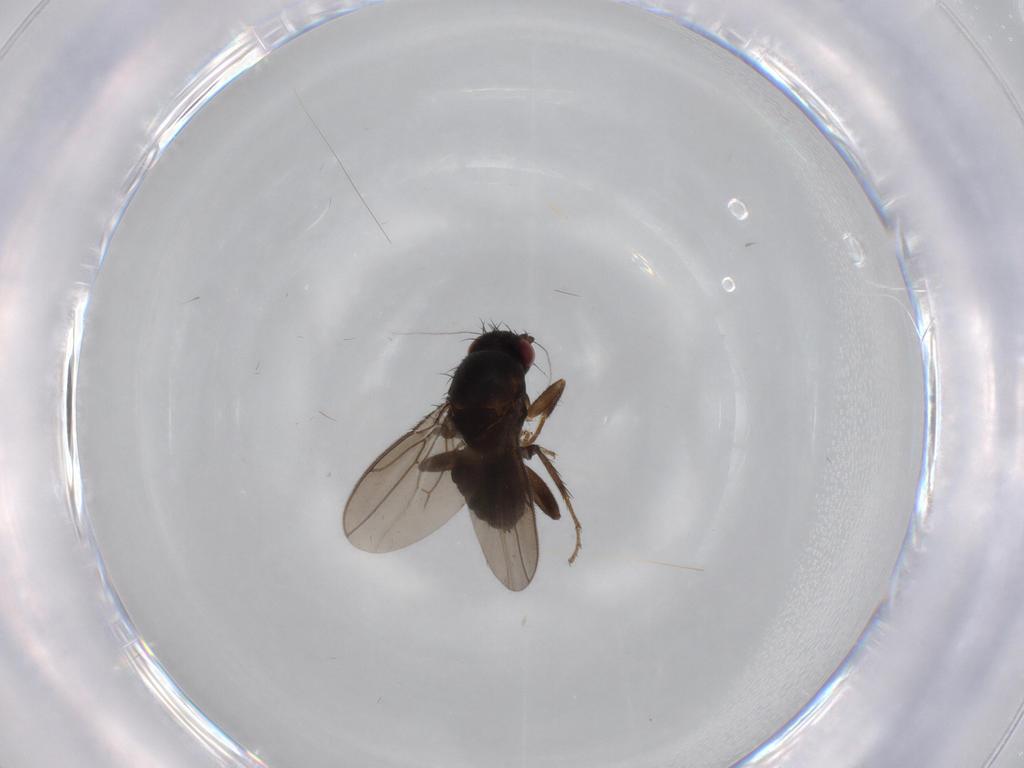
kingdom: Animalia
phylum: Arthropoda
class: Insecta
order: Diptera
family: Sphaeroceridae
